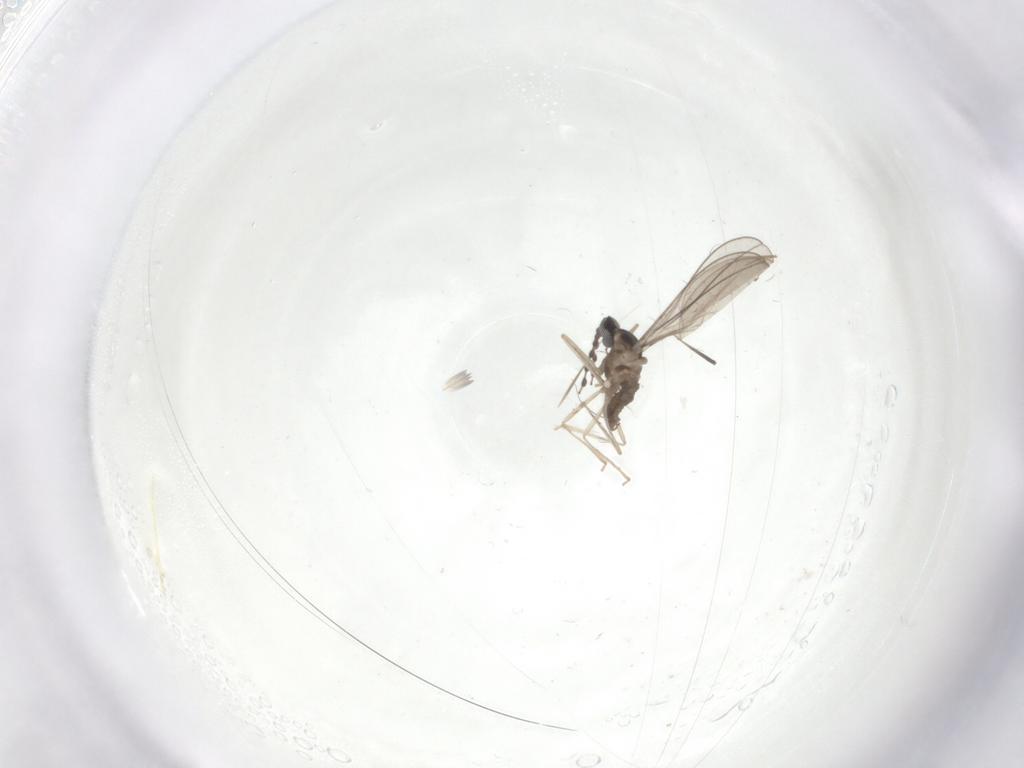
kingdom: Animalia
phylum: Arthropoda
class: Insecta
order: Diptera
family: Cecidomyiidae
